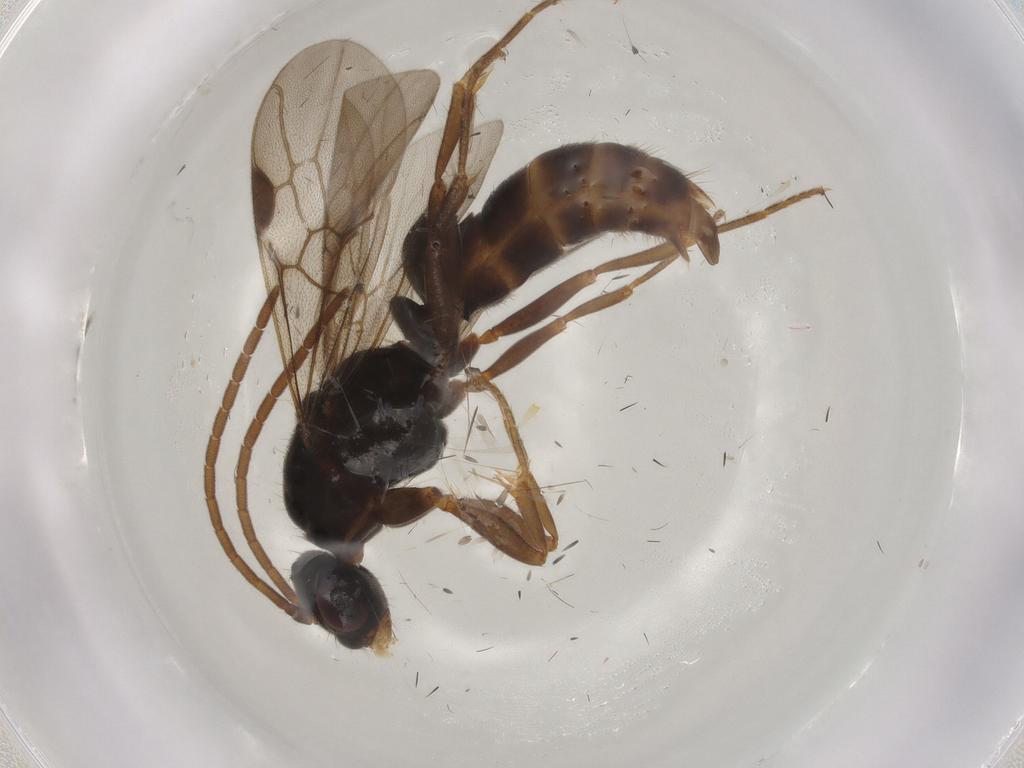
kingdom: Animalia
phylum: Arthropoda
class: Insecta
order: Hymenoptera
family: Formicidae
